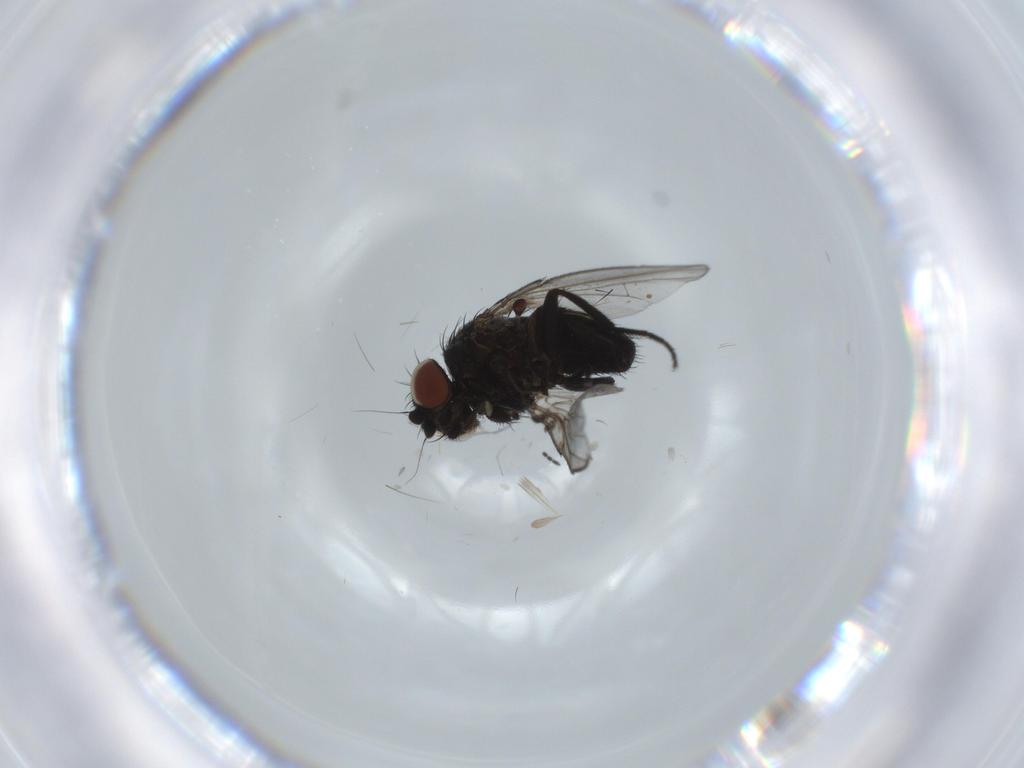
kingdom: Animalia
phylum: Arthropoda
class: Insecta
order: Diptera
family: Milichiidae
